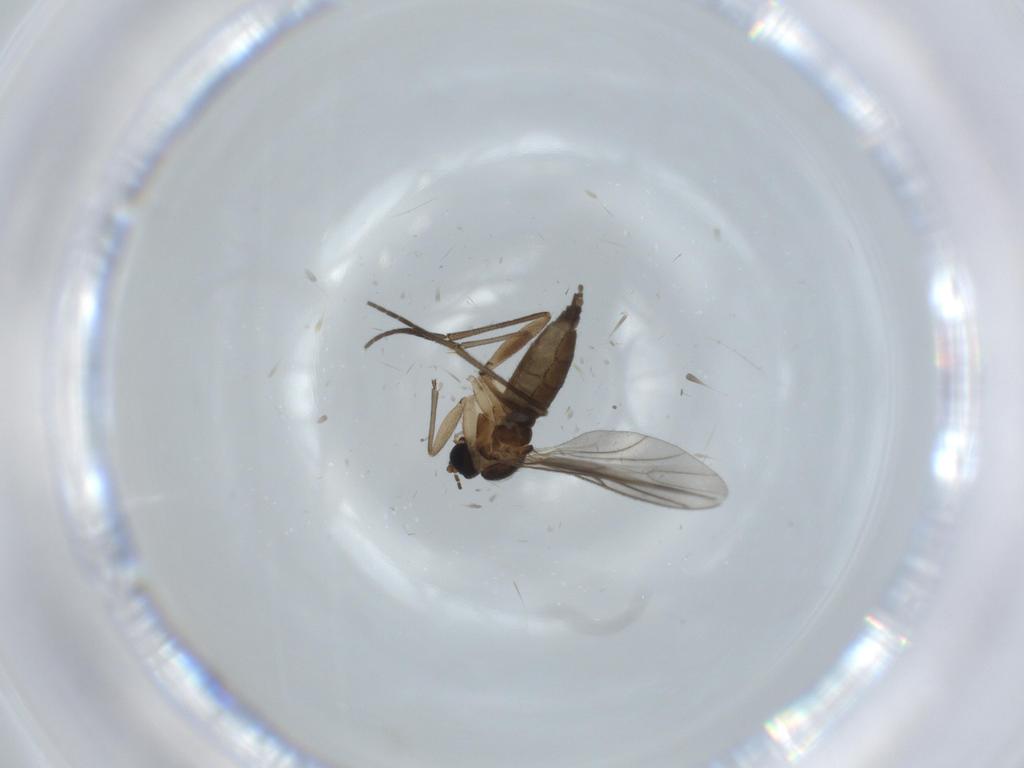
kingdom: Animalia
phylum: Arthropoda
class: Insecta
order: Diptera
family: Sciaridae
